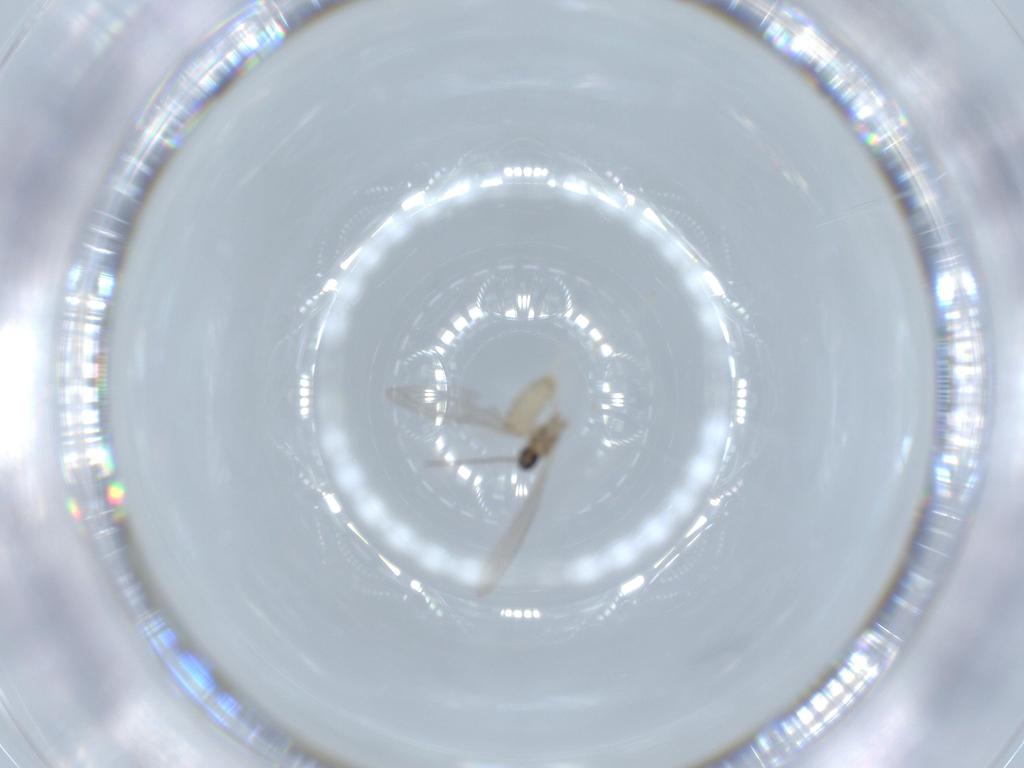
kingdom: Animalia
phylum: Arthropoda
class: Insecta
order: Diptera
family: Cecidomyiidae
